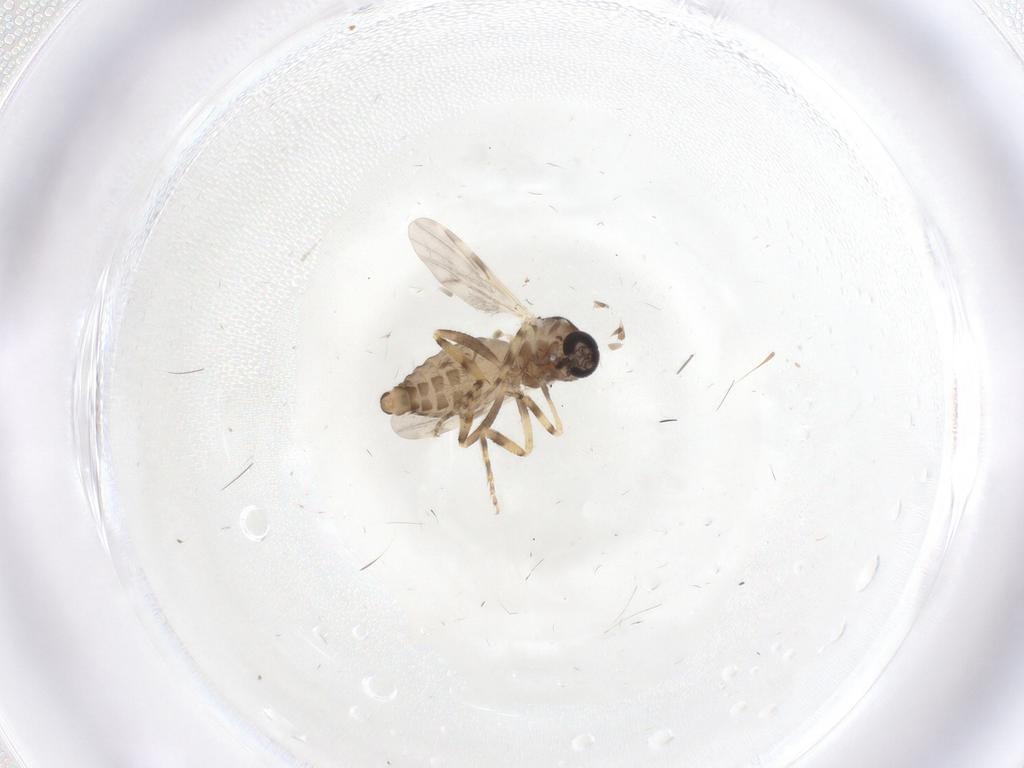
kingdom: Animalia
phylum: Arthropoda
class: Insecta
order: Diptera
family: Ceratopogonidae
